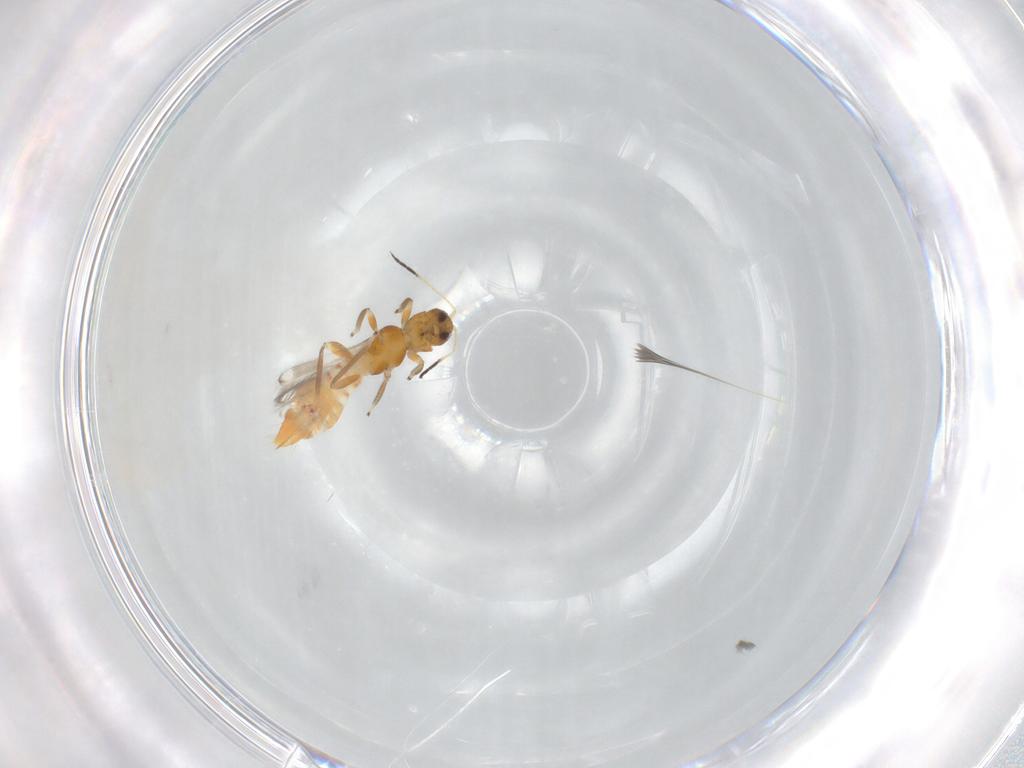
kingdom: Animalia
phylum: Arthropoda
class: Insecta
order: Thysanoptera
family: Aeolothripidae
